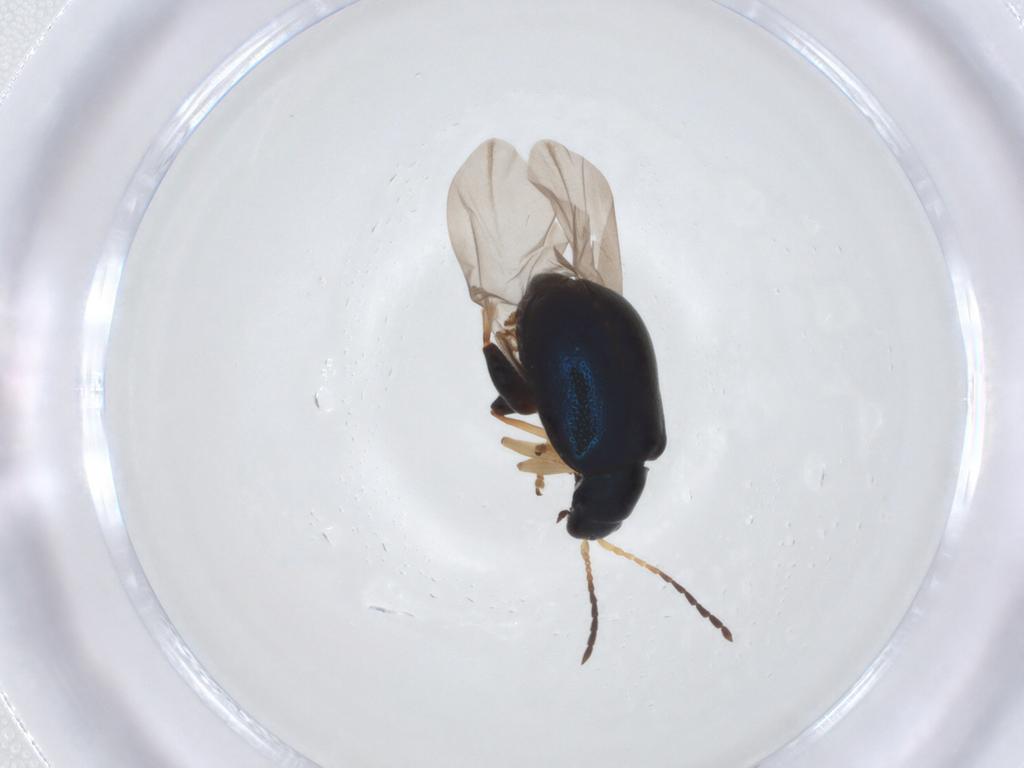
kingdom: Animalia
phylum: Arthropoda
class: Insecta
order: Coleoptera
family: Chrysomelidae
